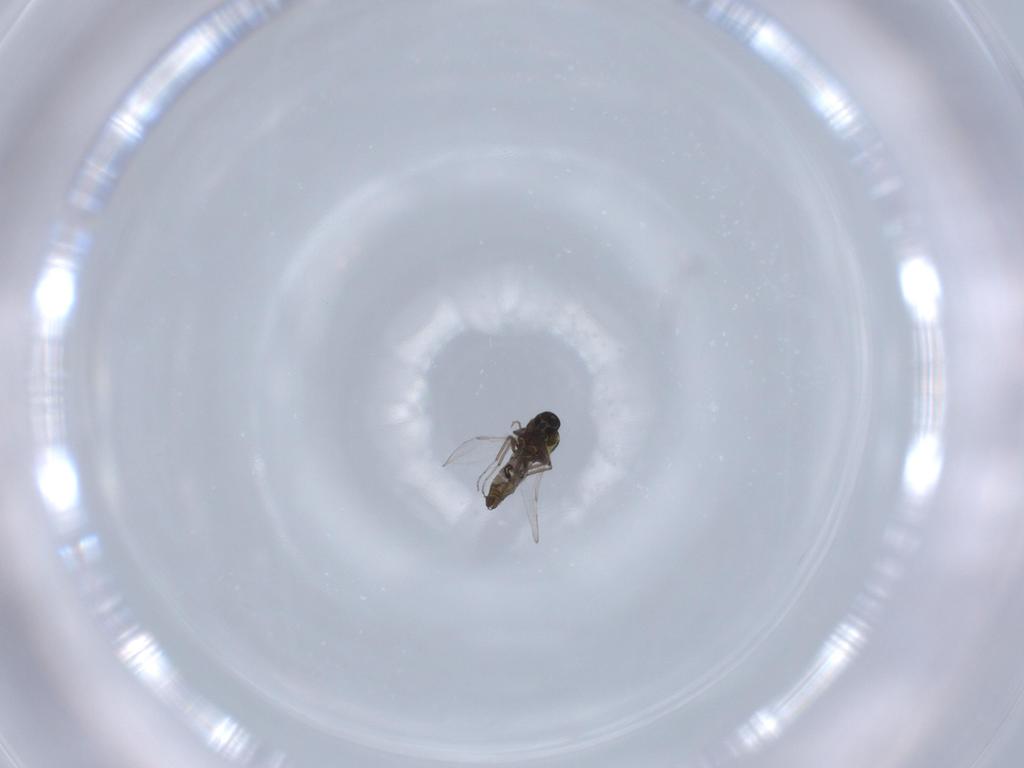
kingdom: Animalia
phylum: Arthropoda
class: Insecta
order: Diptera
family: Ceratopogonidae
